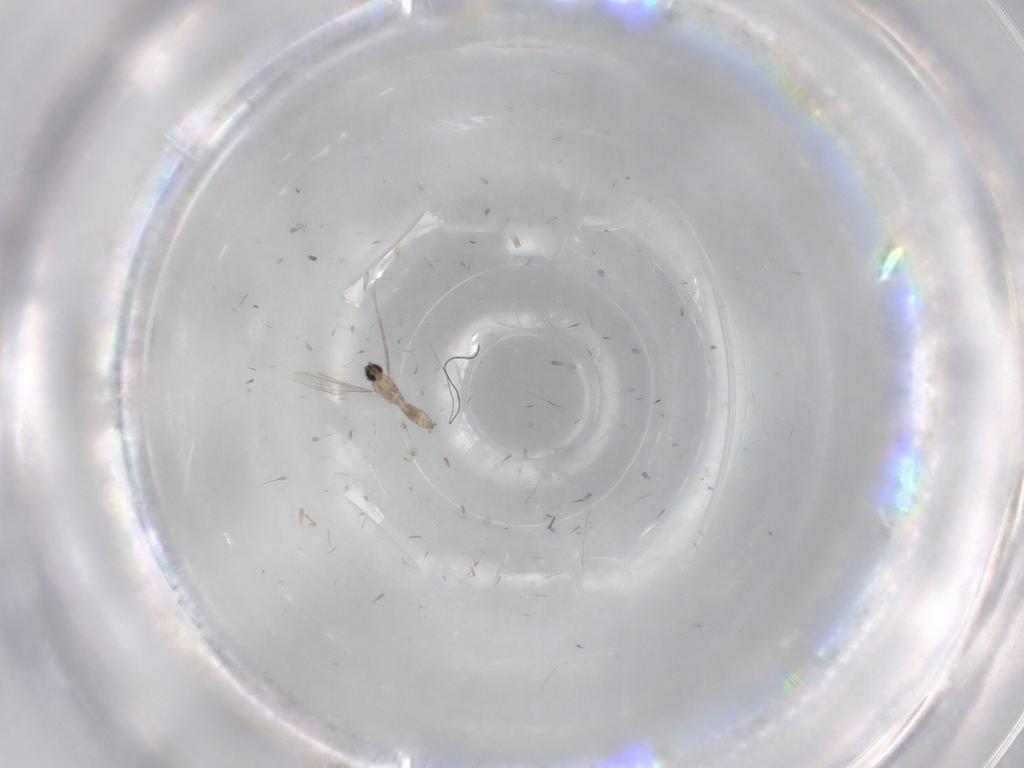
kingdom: Animalia
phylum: Arthropoda
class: Insecta
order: Diptera
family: Cecidomyiidae
